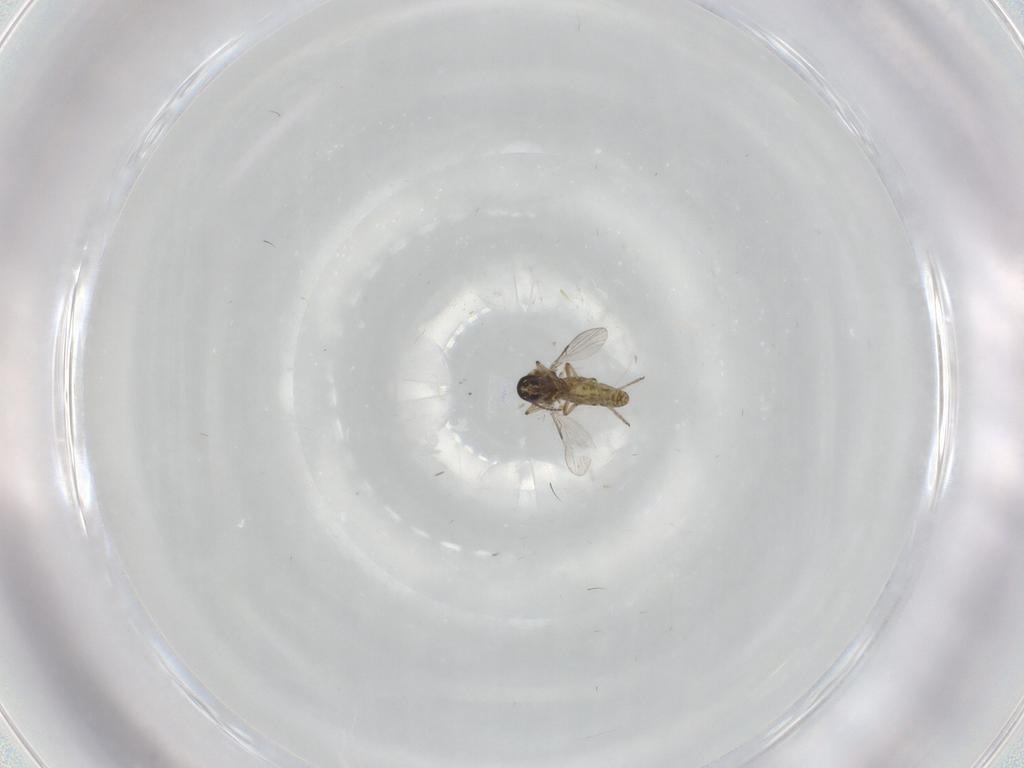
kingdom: Animalia
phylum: Arthropoda
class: Insecta
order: Diptera
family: Ceratopogonidae
